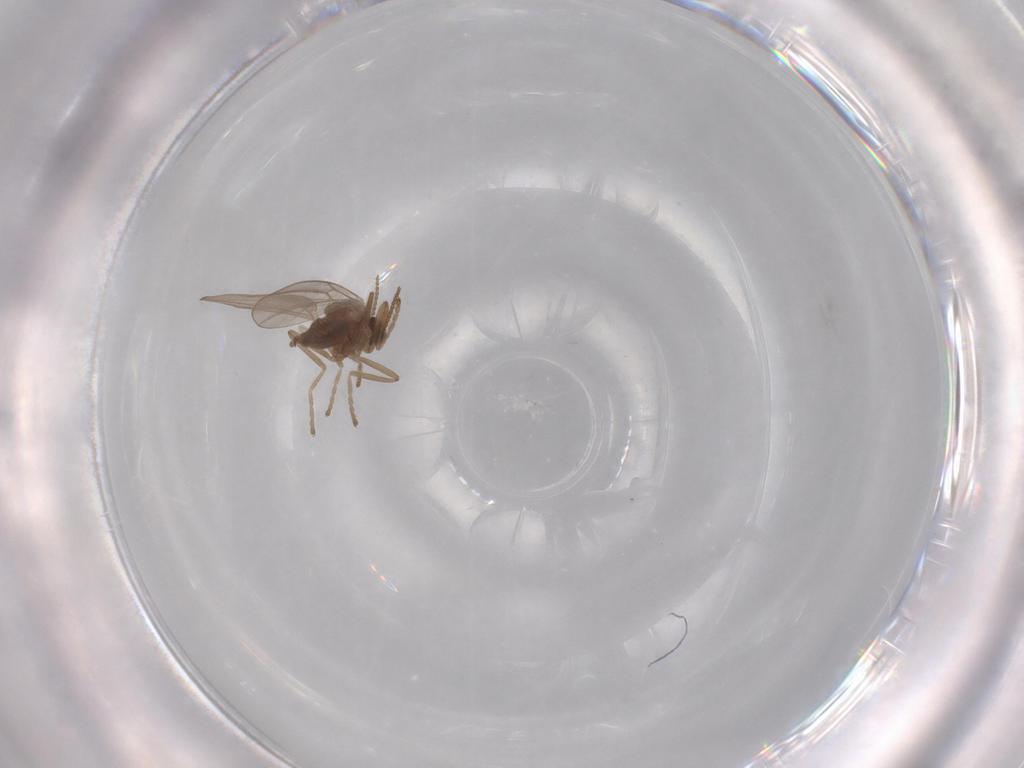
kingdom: Animalia
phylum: Arthropoda
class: Insecta
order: Diptera
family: Cecidomyiidae
